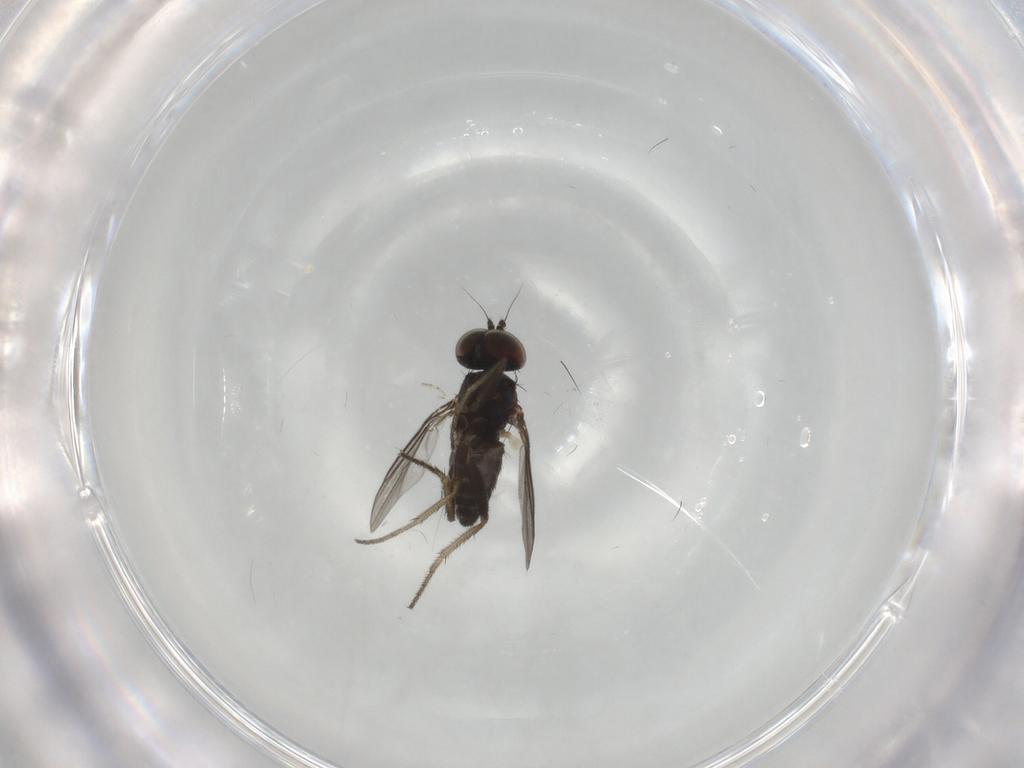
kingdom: Animalia
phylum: Arthropoda
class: Insecta
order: Diptera
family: Dolichopodidae
